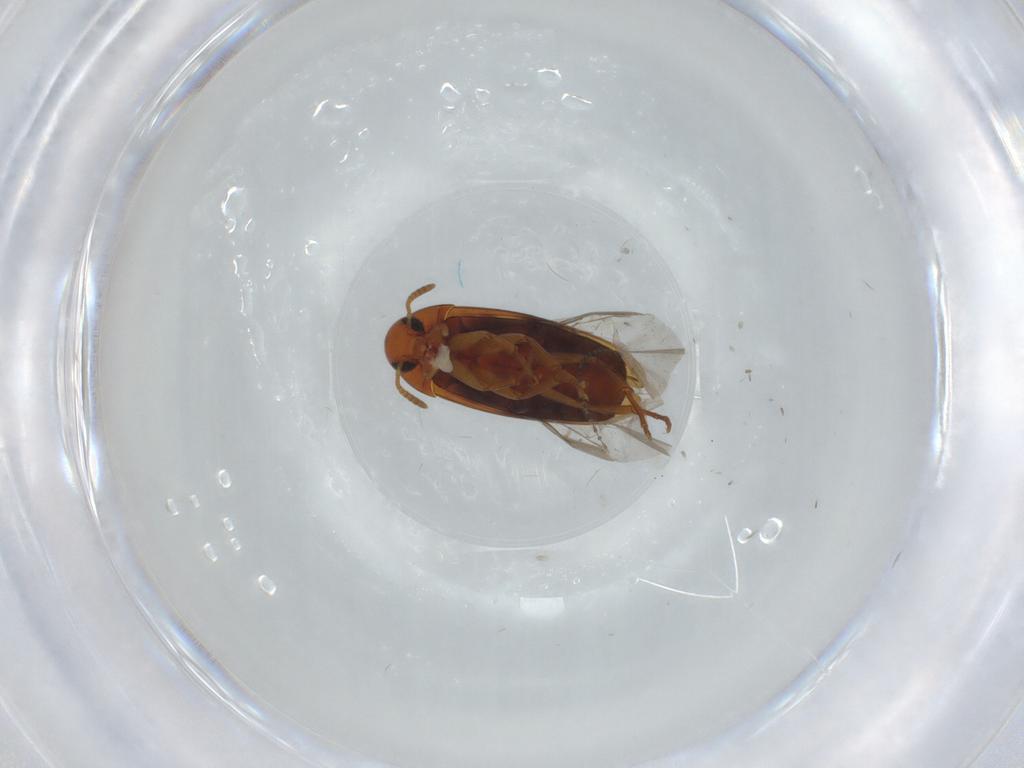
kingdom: Animalia
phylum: Arthropoda
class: Insecta
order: Coleoptera
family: Scraptiidae
